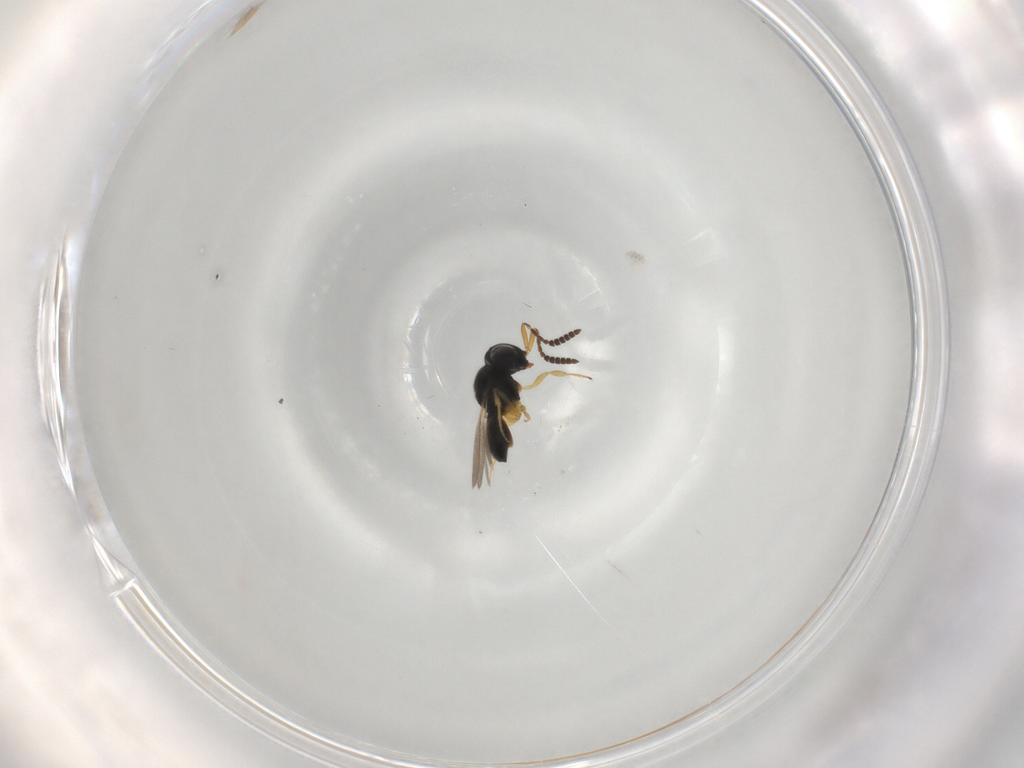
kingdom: Animalia
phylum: Arthropoda
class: Insecta
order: Hymenoptera
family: Scelionidae
